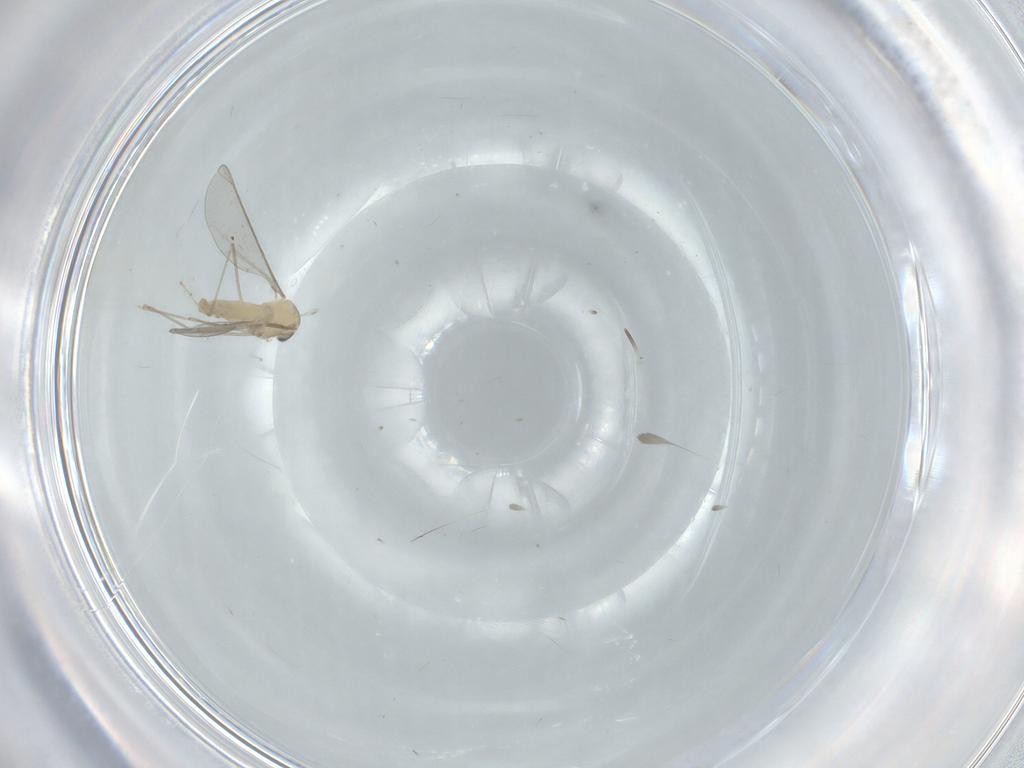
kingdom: Animalia
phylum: Arthropoda
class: Insecta
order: Diptera
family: Cecidomyiidae
